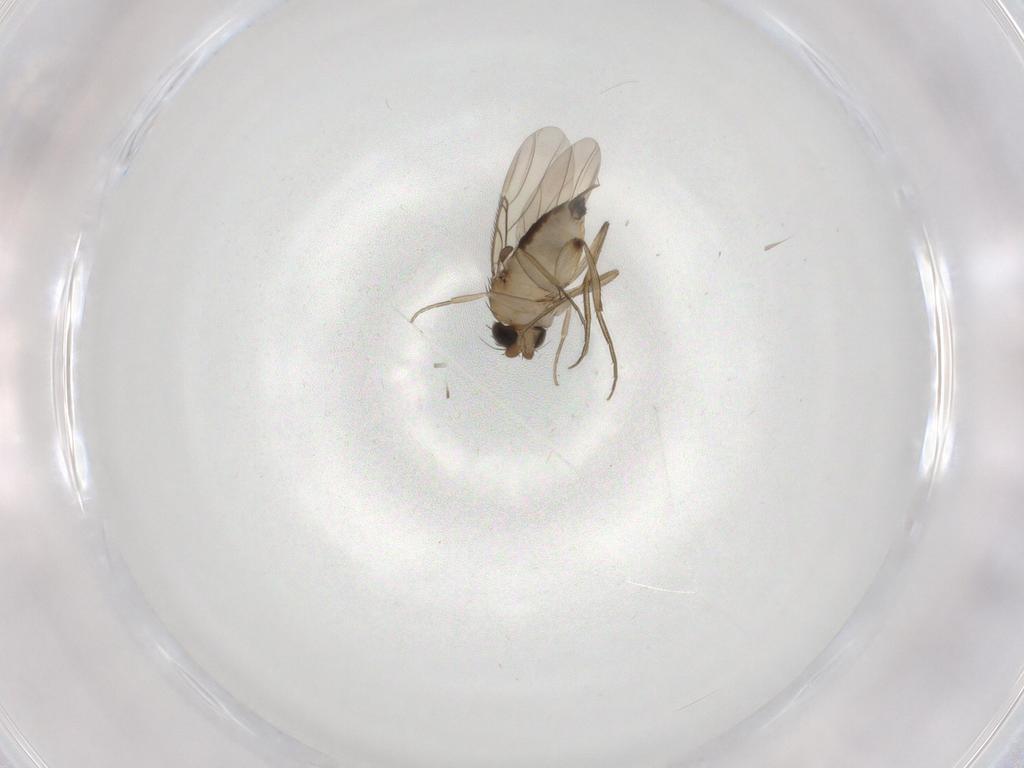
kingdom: Animalia
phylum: Arthropoda
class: Insecta
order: Diptera
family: Phoridae
